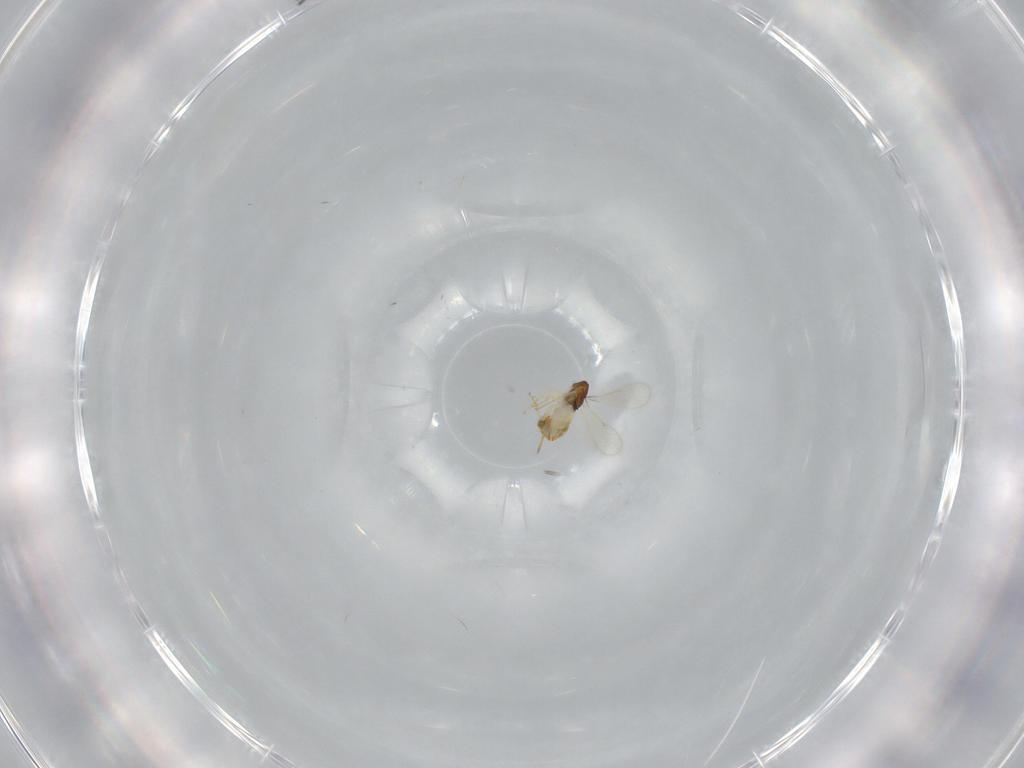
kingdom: Animalia
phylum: Arthropoda
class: Insecta
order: Hymenoptera
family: Aphelinidae
